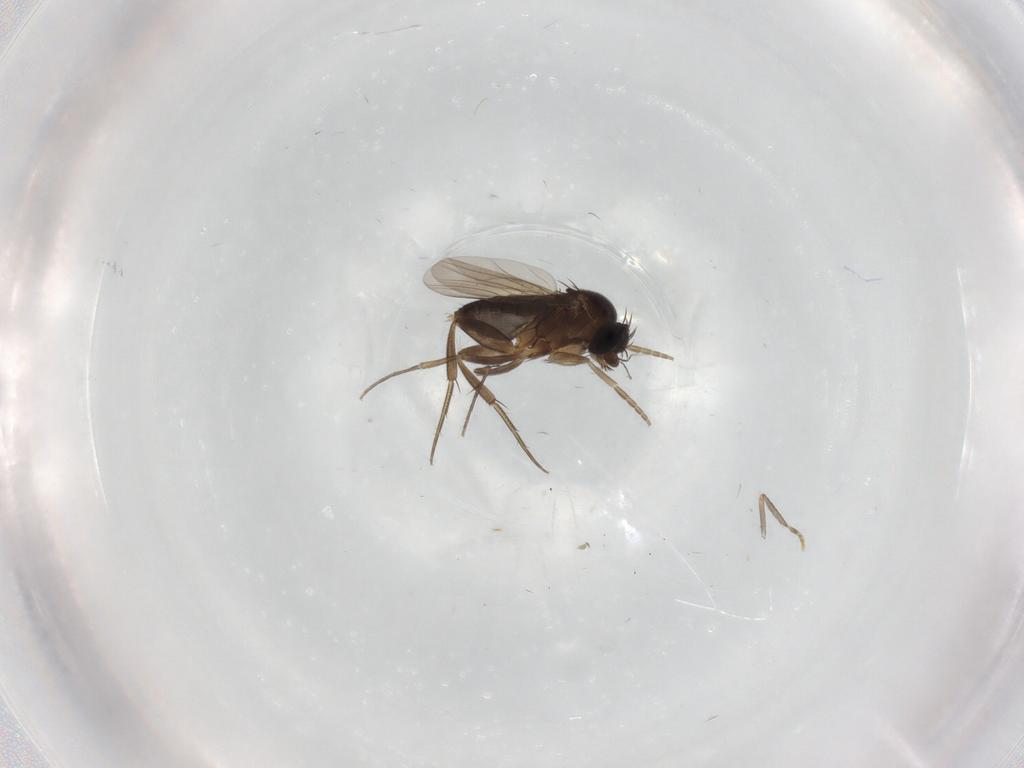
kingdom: Animalia
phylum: Arthropoda
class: Insecta
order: Diptera
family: Phoridae
